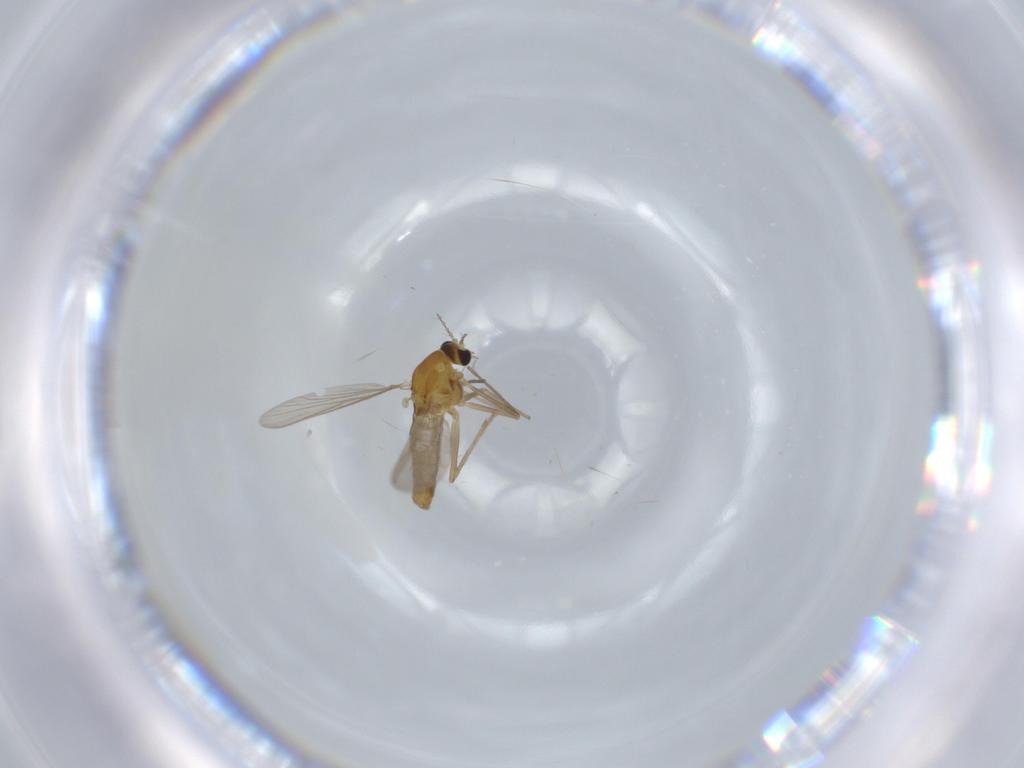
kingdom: Animalia
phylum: Arthropoda
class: Insecta
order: Diptera
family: Chironomidae
